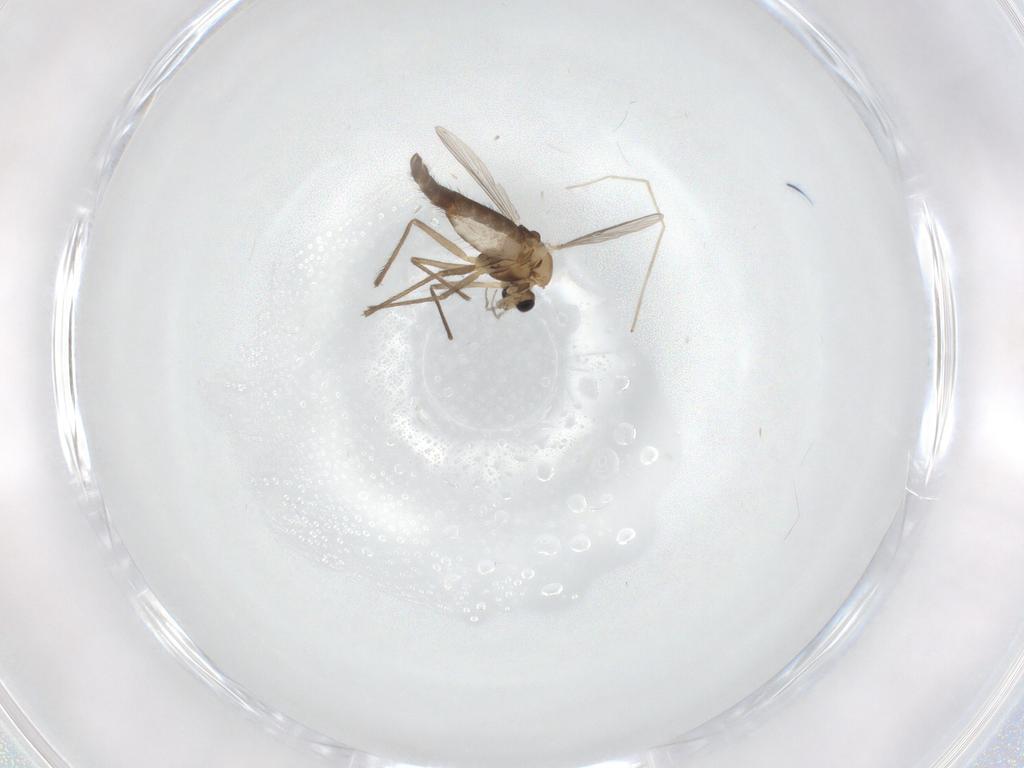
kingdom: Animalia
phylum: Arthropoda
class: Insecta
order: Diptera
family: Chironomidae
